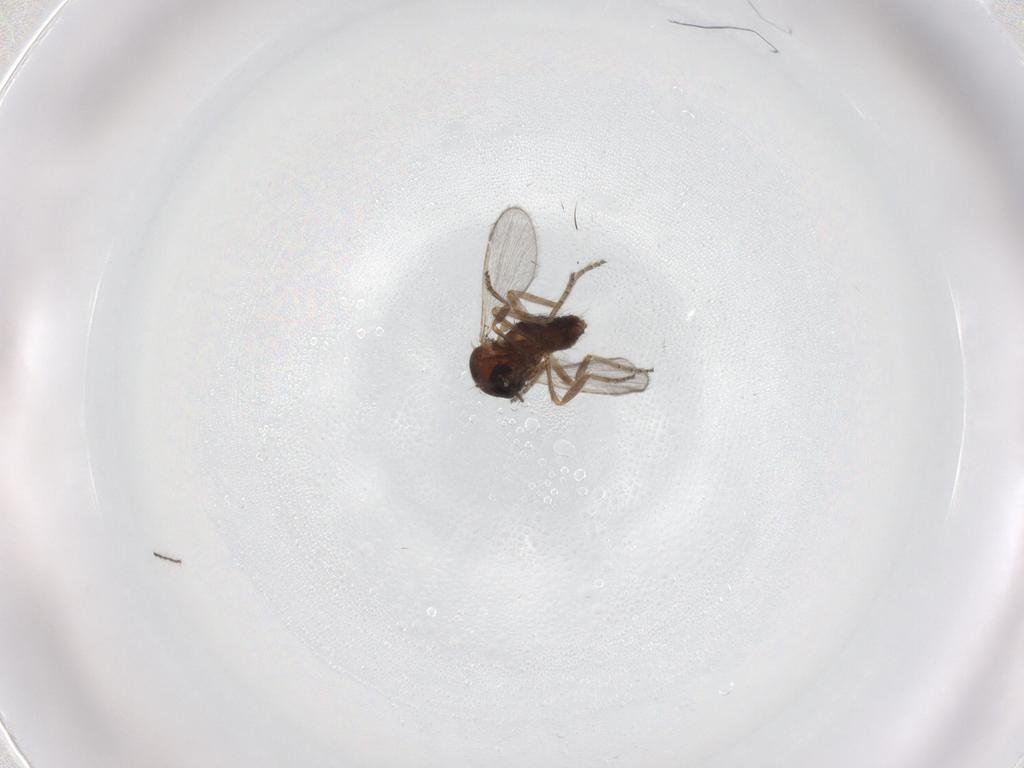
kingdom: Animalia
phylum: Arthropoda
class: Insecta
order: Diptera
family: Ceratopogonidae
